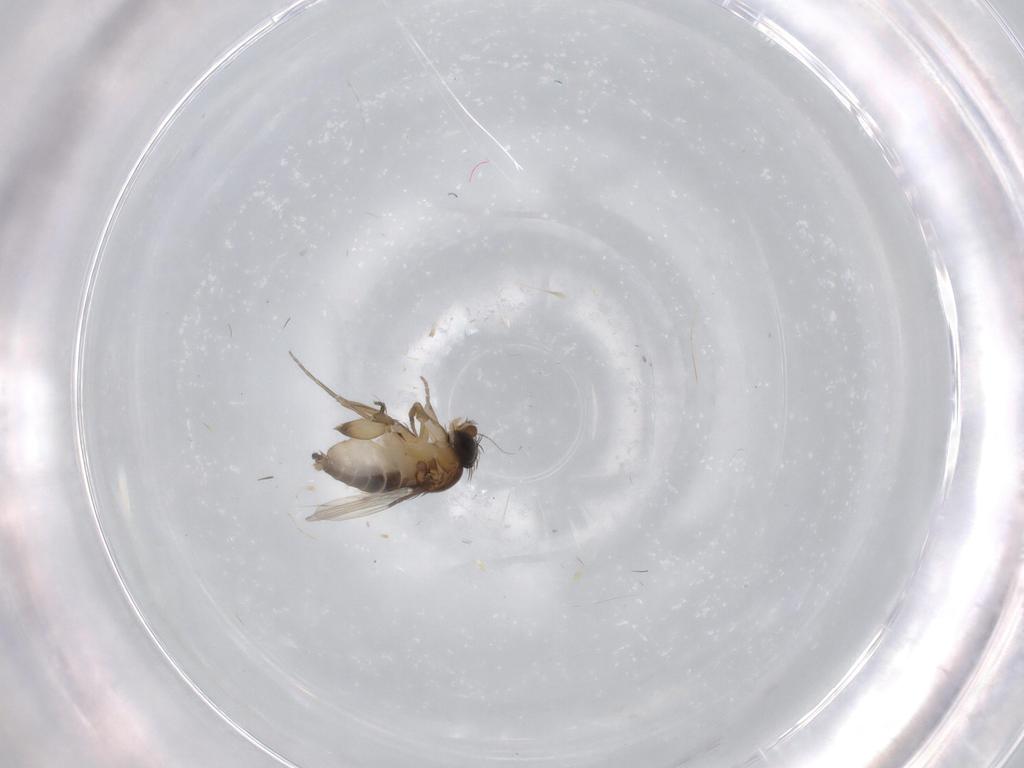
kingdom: Animalia
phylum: Arthropoda
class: Insecta
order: Diptera
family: Phoridae
